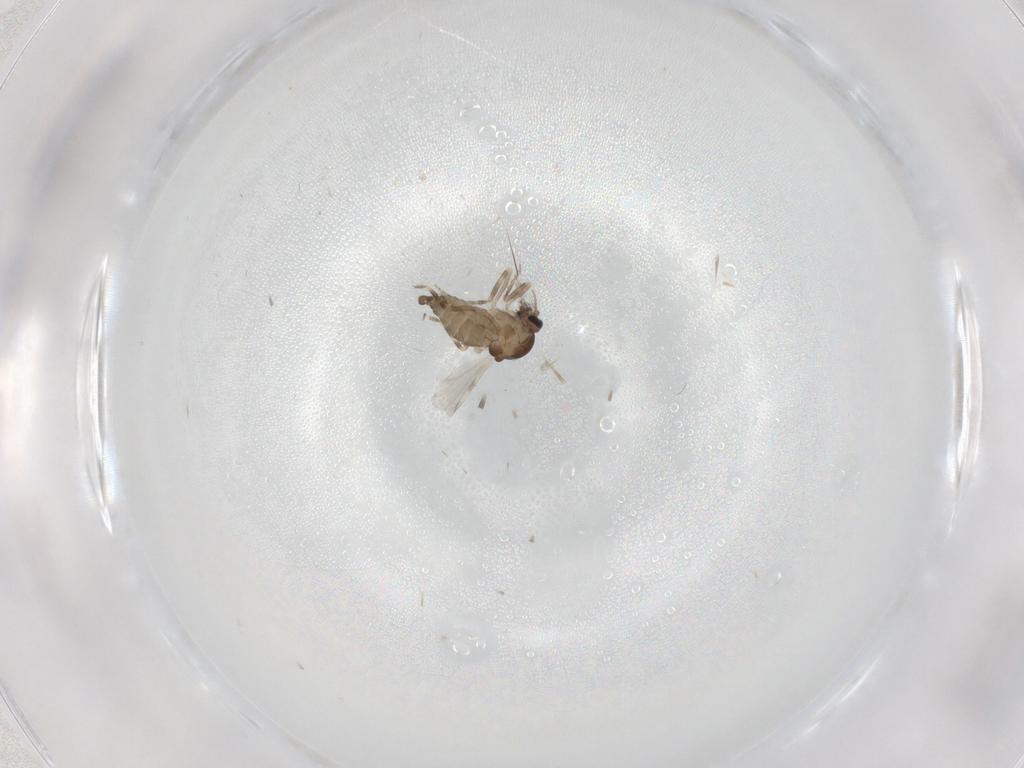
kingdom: Animalia
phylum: Arthropoda
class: Insecta
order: Diptera
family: Ceratopogonidae
